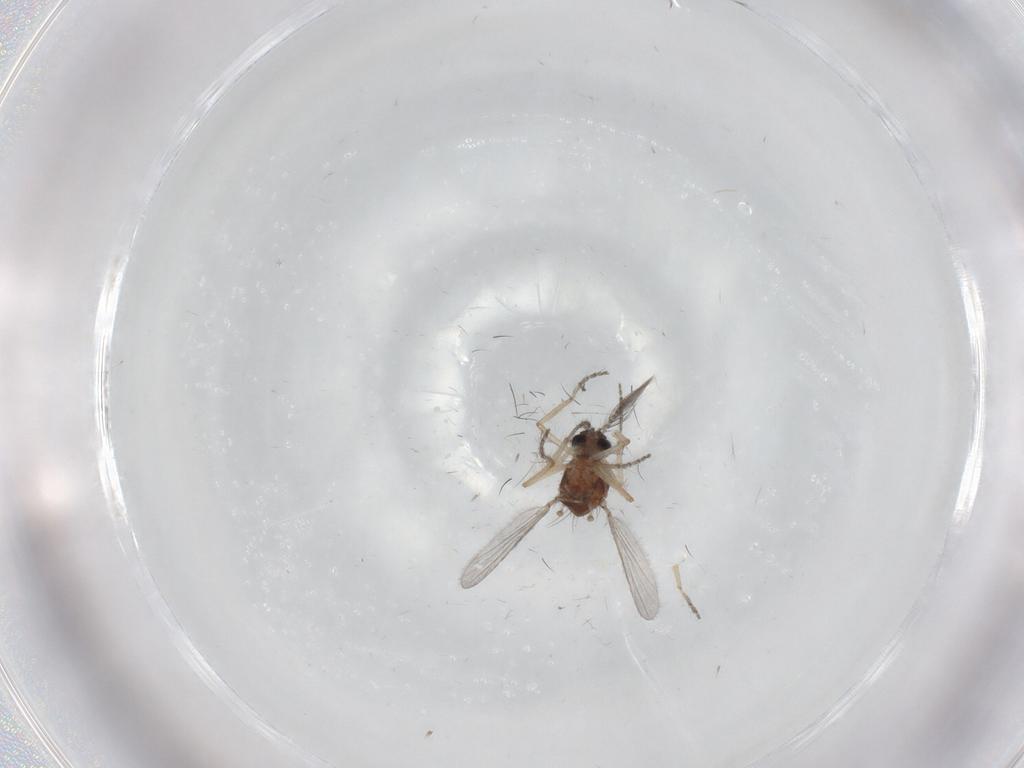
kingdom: Animalia
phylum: Arthropoda
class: Insecta
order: Diptera
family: Ceratopogonidae
